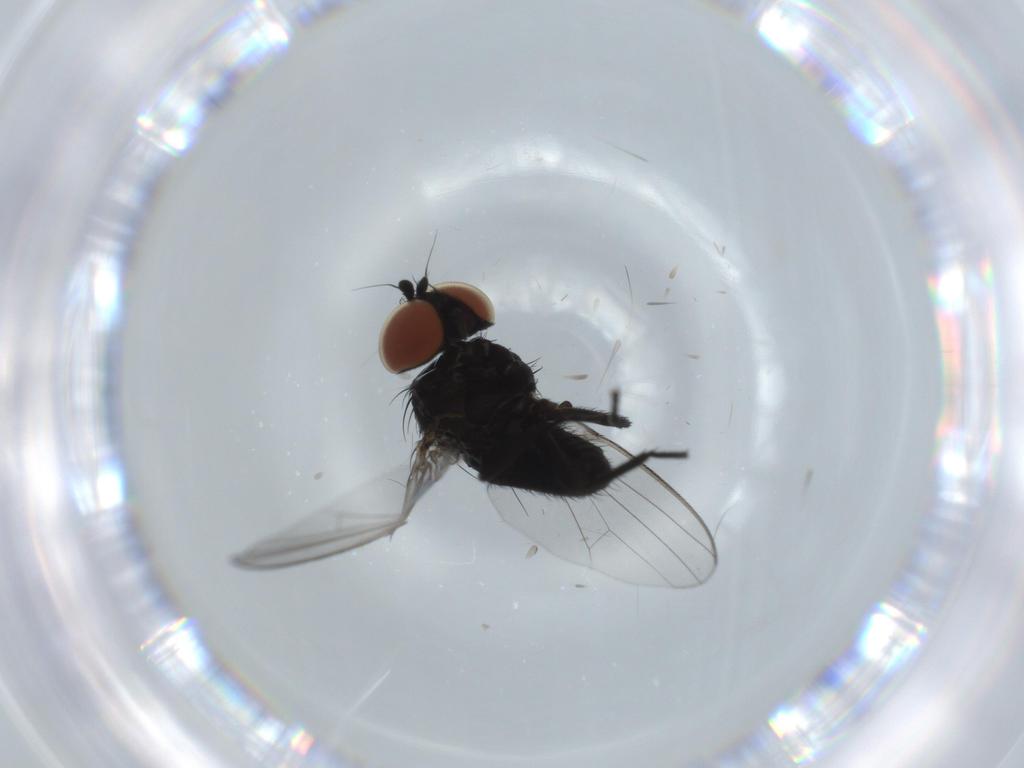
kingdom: Animalia
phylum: Arthropoda
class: Insecta
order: Diptera
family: Milichiidae
